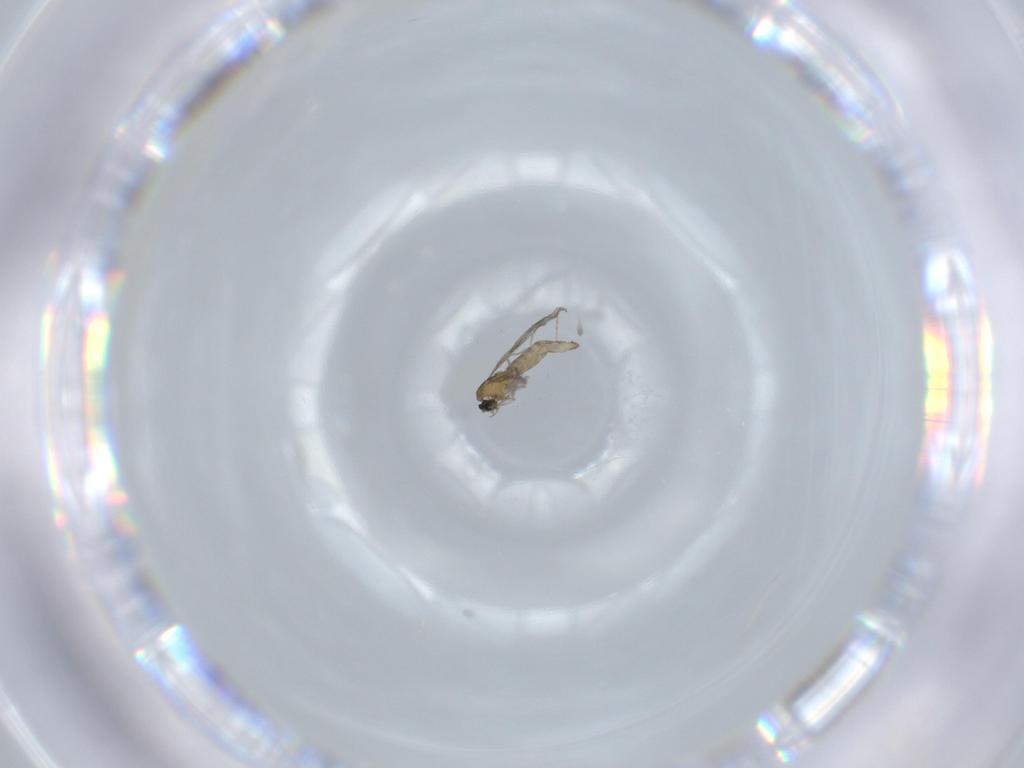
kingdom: Animalia
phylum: Arthropoda
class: Insecta
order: Diptera
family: Cecidomyiidae
